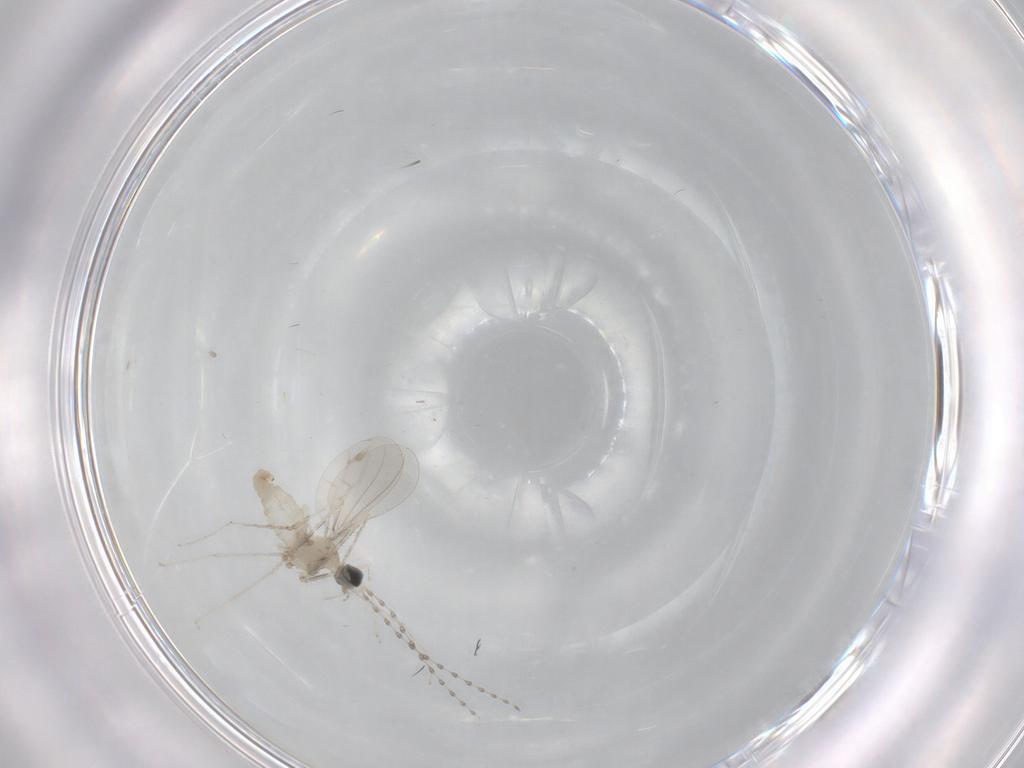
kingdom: Animalia
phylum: Arthropoda
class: Insecta
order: Diptera
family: Cecidomyiidae
